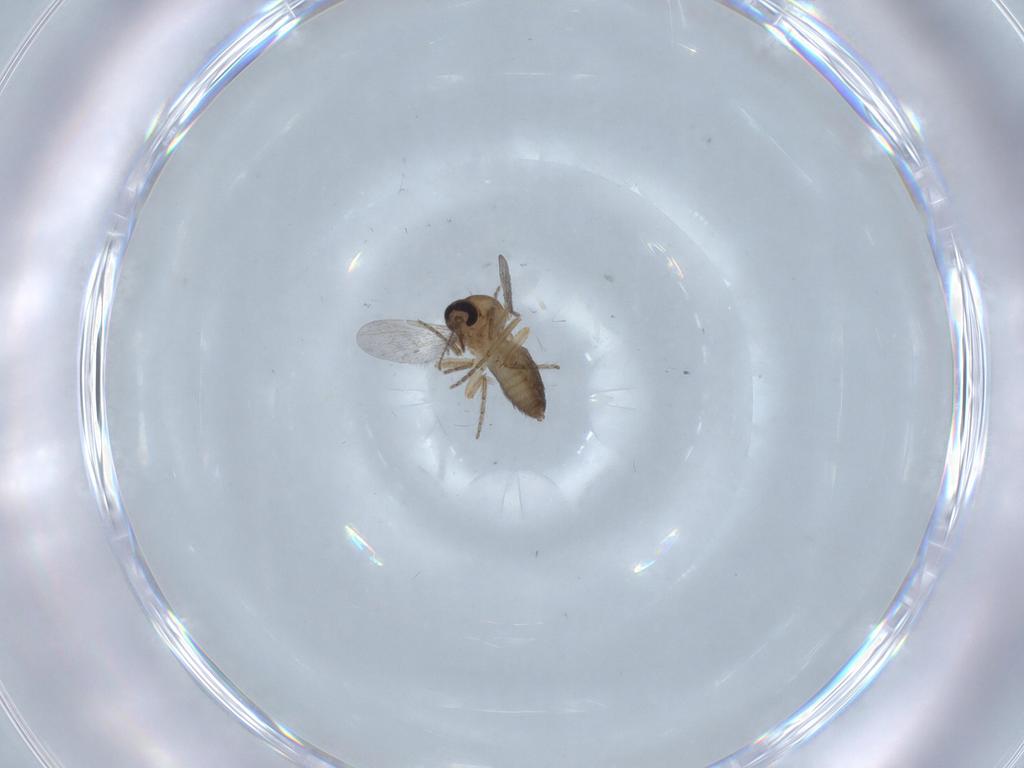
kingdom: Animalia
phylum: Arthropoda
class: Insecta
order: Diptera
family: Ceratopogonidae
